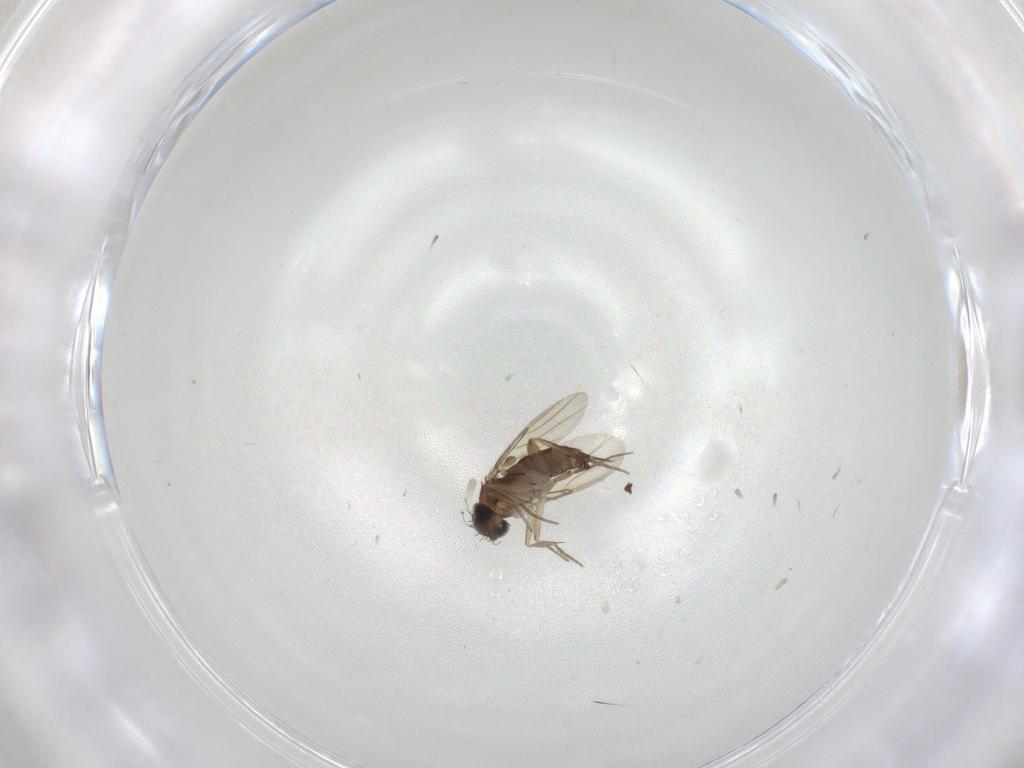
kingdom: Animalia
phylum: Arthropoda
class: Insecta
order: Diptera
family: Phoridae
